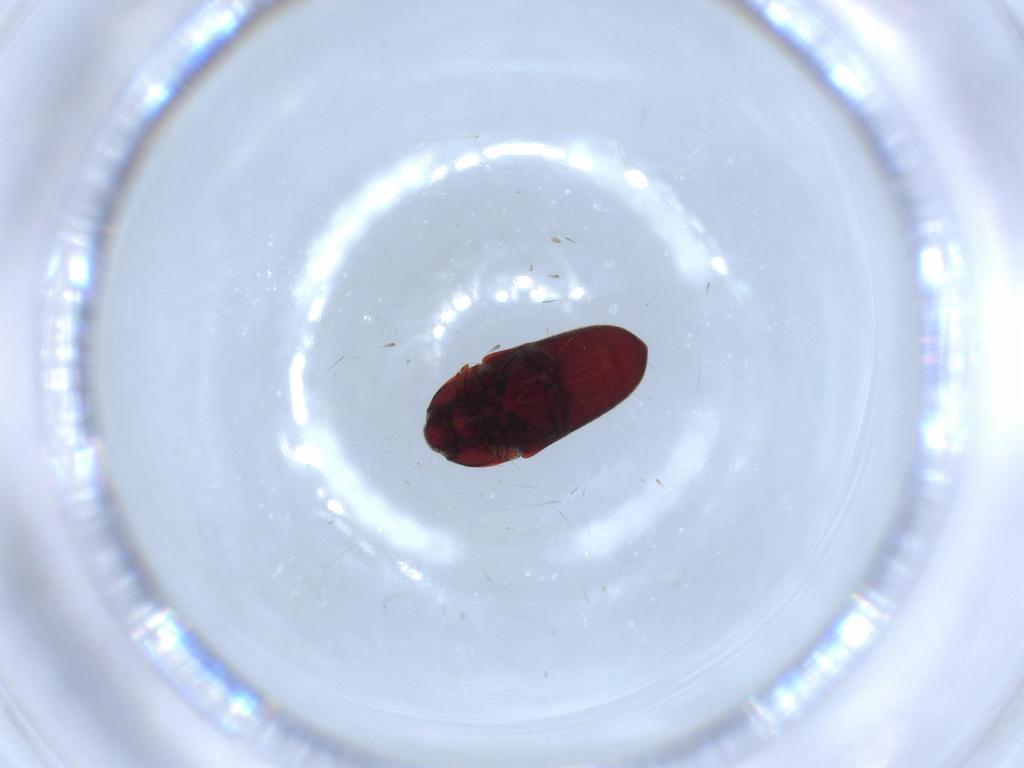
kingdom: Animalia
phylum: Arthropoda
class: Insecta
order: Coleoptera
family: Throscidae
